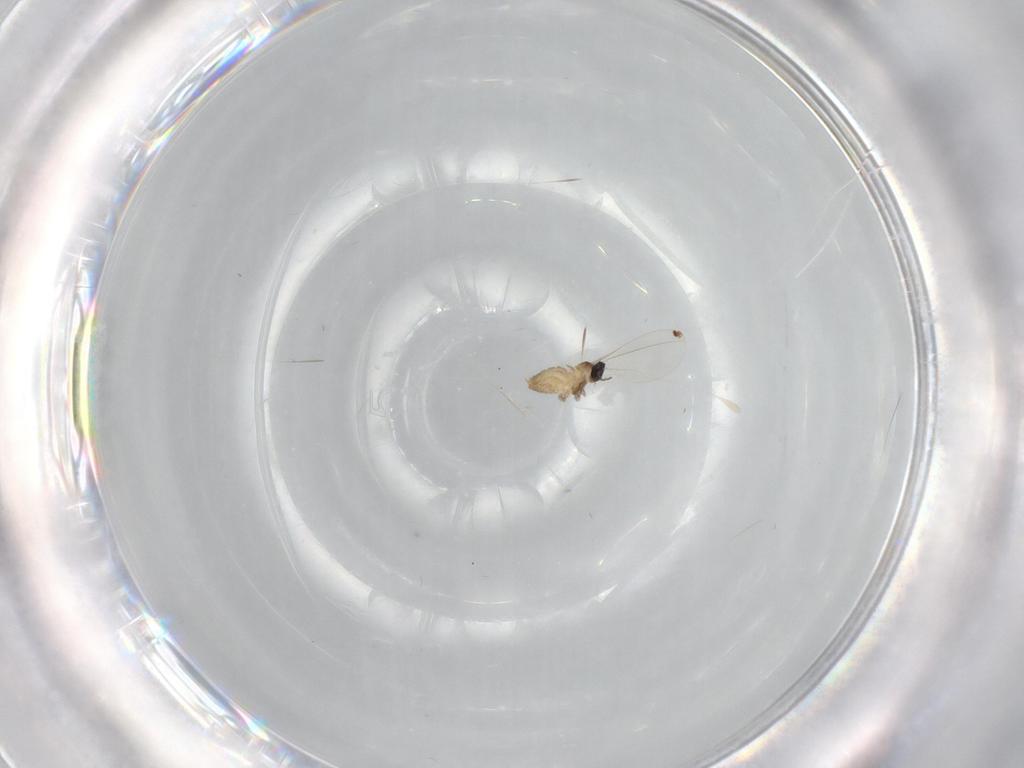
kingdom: Animalia
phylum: Arthropoda
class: Insecta
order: Diptera
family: Cecidomyiidae
